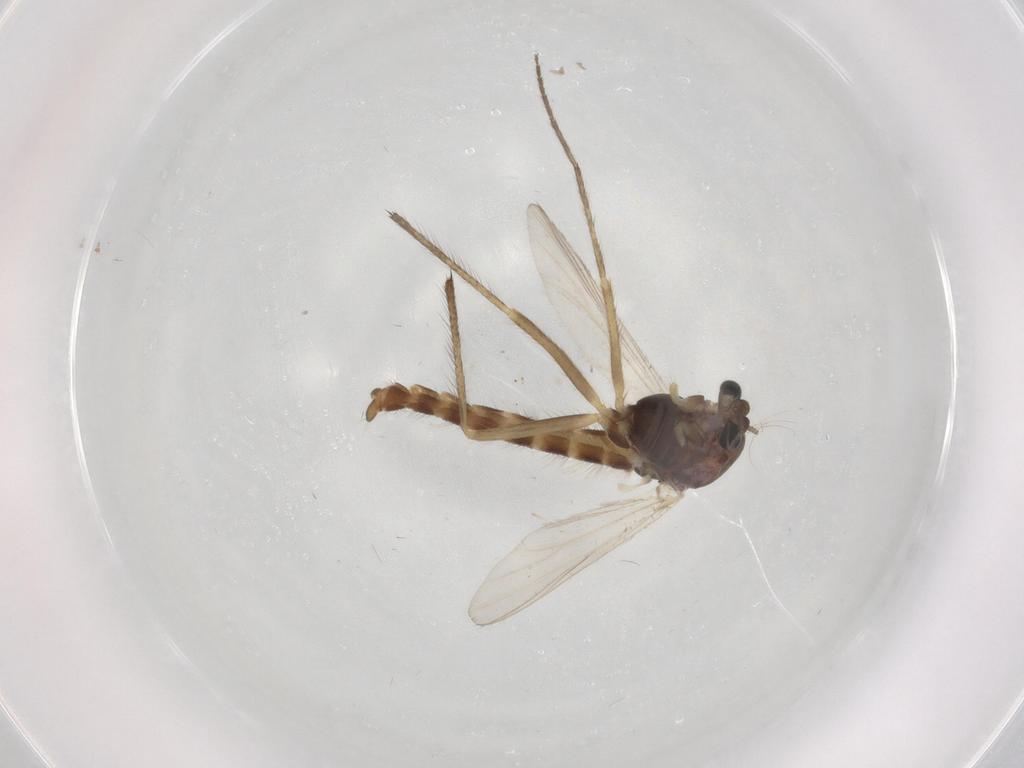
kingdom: Animalia
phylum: Arthropoda
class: Insecta
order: Diptera
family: Chironomidae
